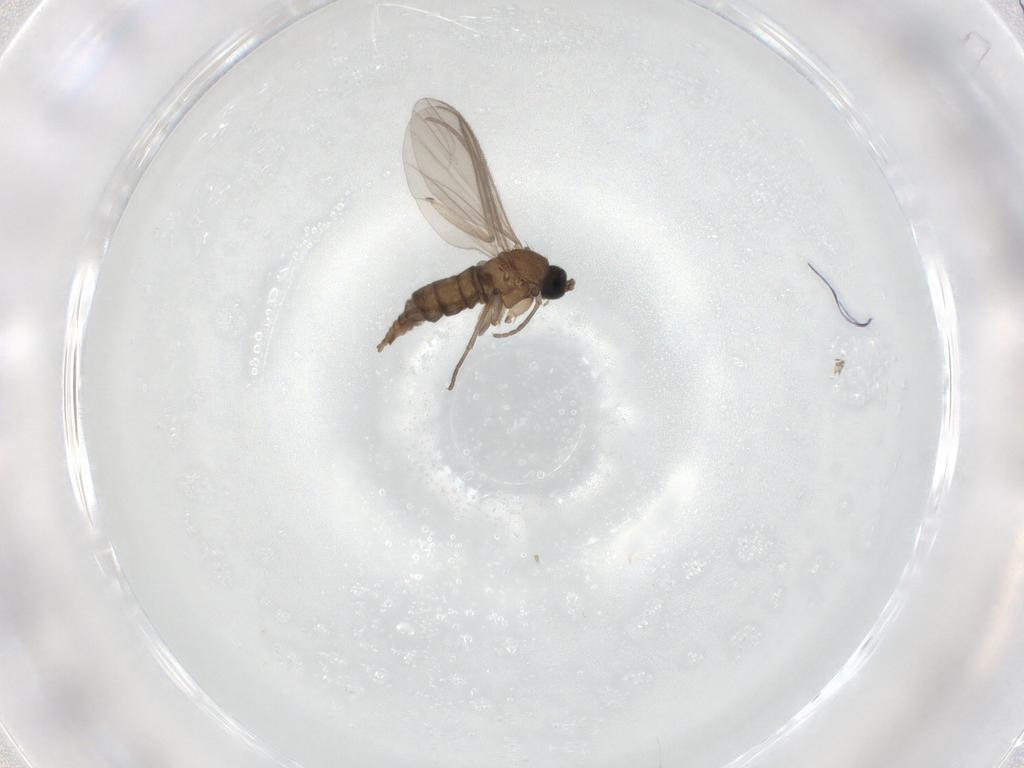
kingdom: Animalia
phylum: Arthropoda
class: Insecta
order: Diptera
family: Sciaridae
